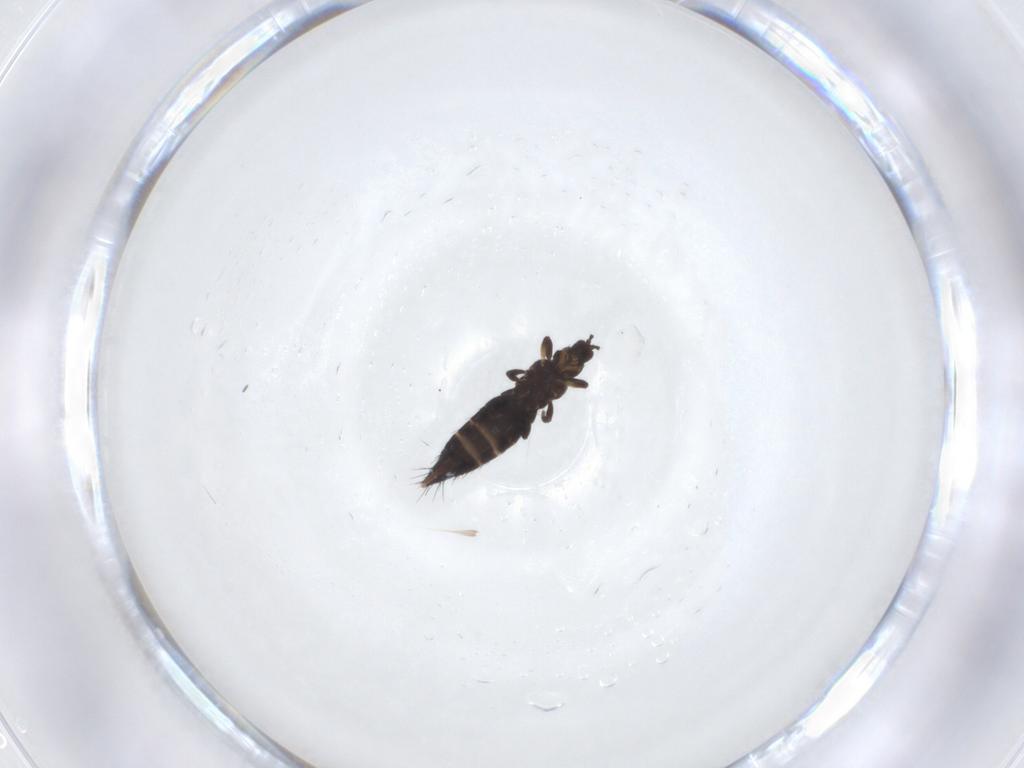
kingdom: Animalia
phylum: Arthropoda
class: Insecta
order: Thysanoptera
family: Thripidae
